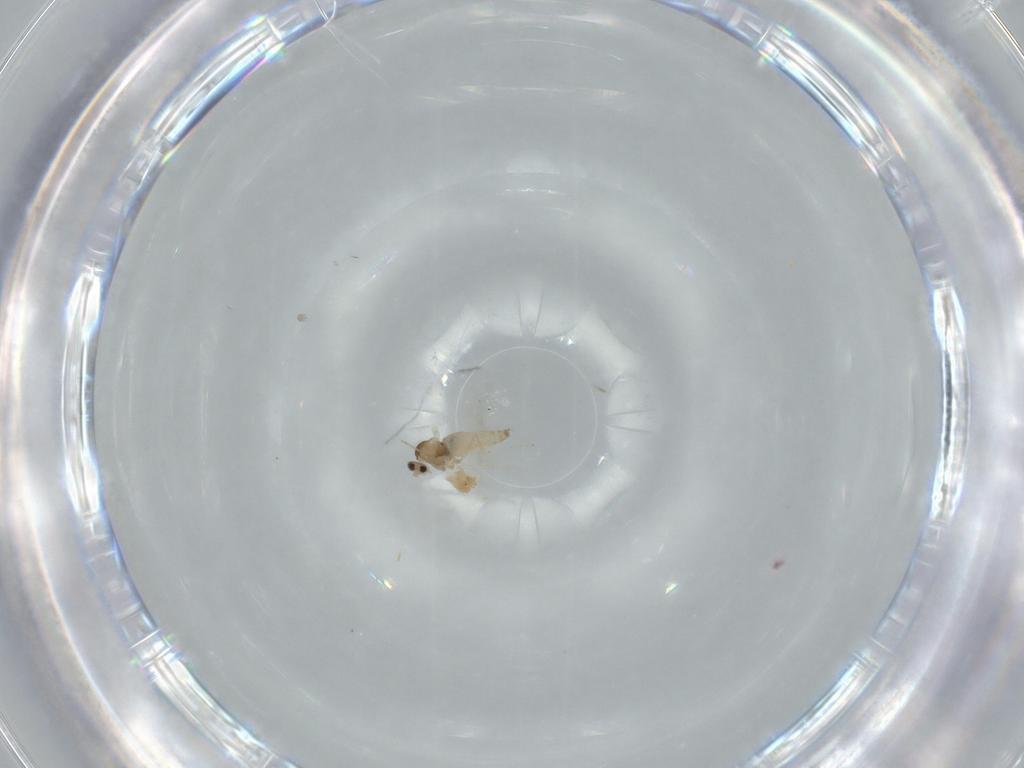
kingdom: Animalia
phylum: Arthropoda
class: Insecta
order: Diptera
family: Cecidomyiidae
